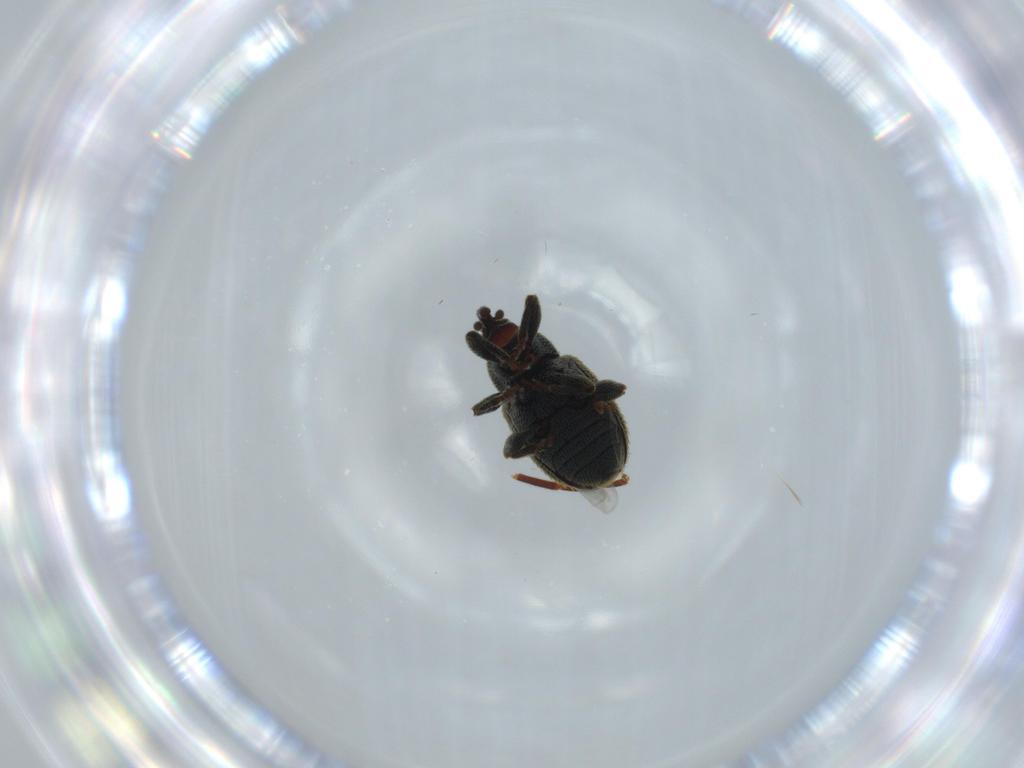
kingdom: Animalia
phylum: Arthropoda
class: Insecta
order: Coleoptera
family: Curculionidae
